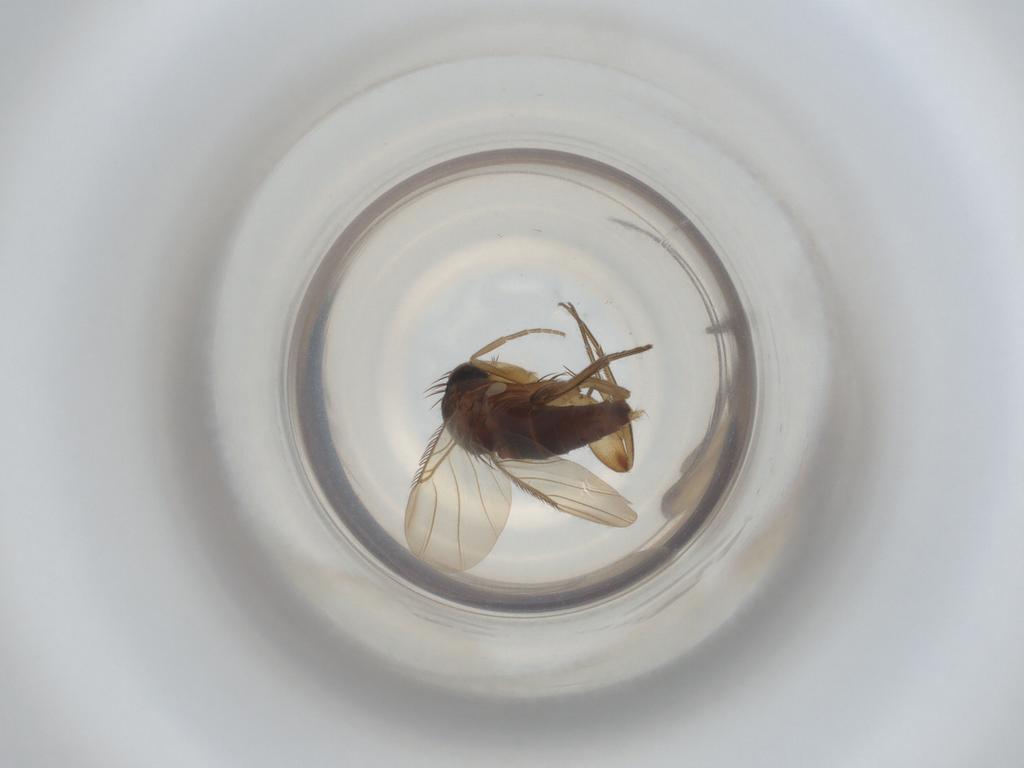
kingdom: Animalia
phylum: Arthropoda
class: Insecta
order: Diptera
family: Phoridae
